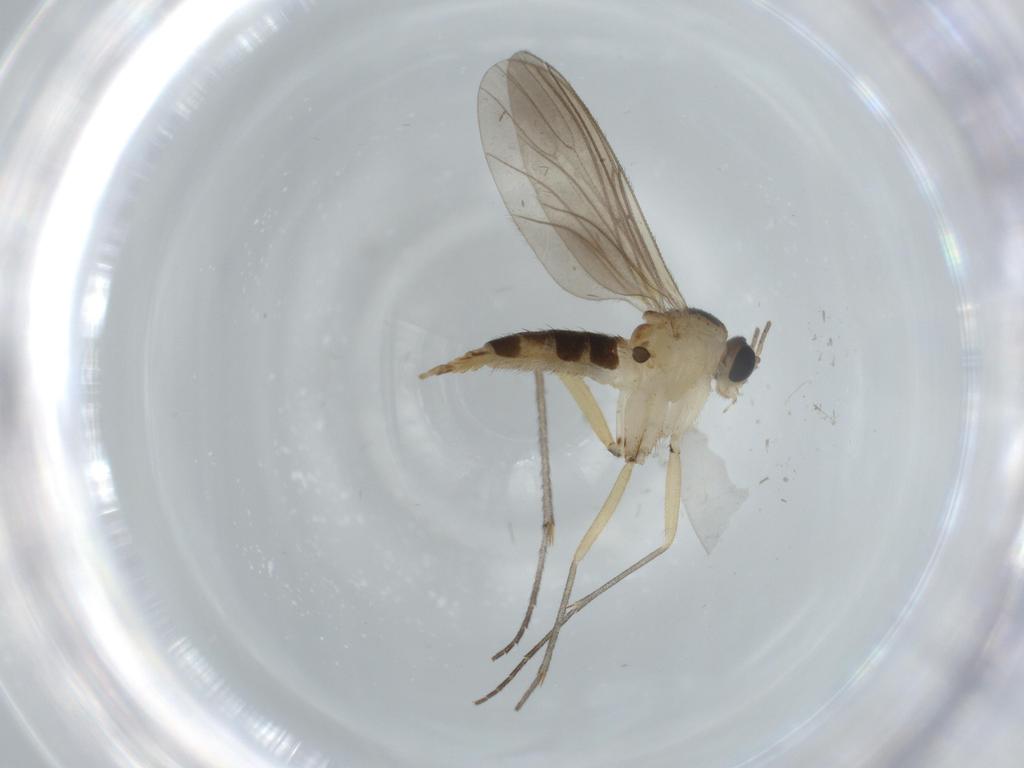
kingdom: Animalia
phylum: Arthropoda
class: Insecta
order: Diptera
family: Sciaridae
